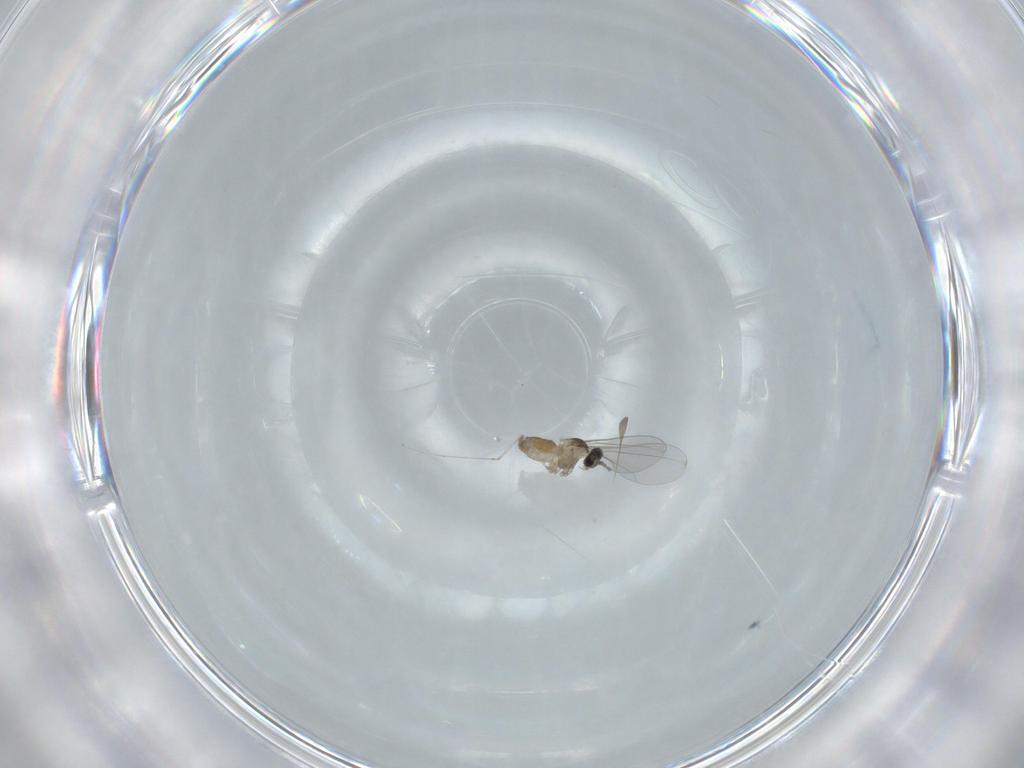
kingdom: Animalia
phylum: Arthropoda
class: Insecta
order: Diptera
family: Cecidomyiidae
